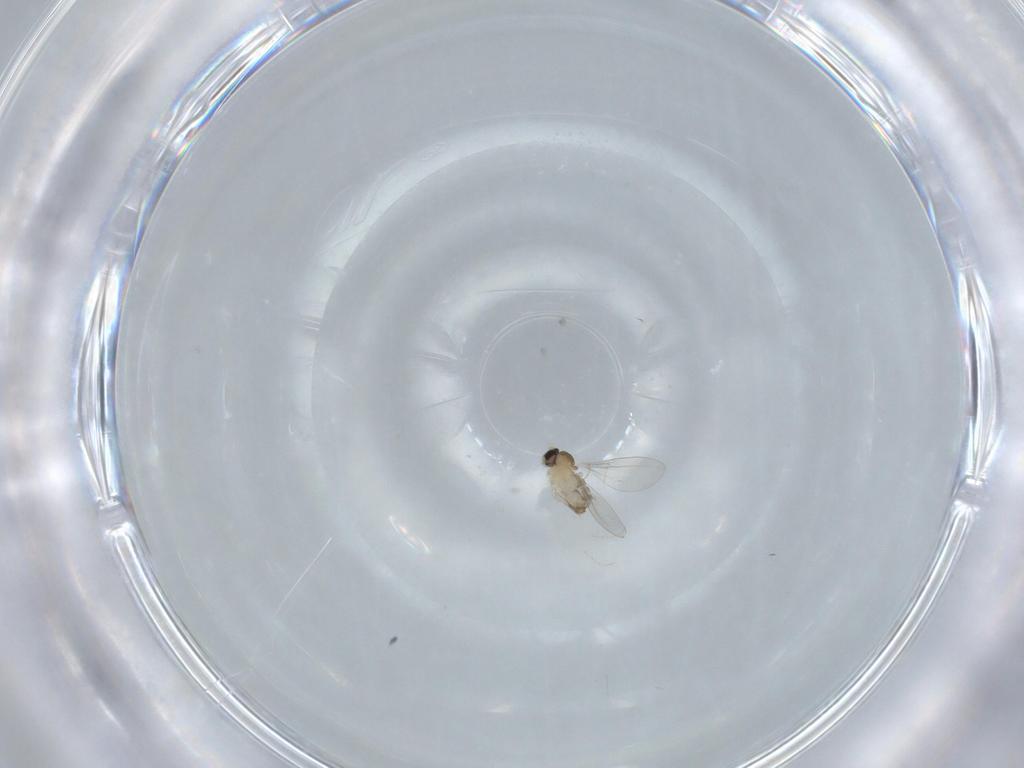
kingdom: Animalia
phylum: Arthropoda
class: Insecta
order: Diptera
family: Cecidomyiidae
